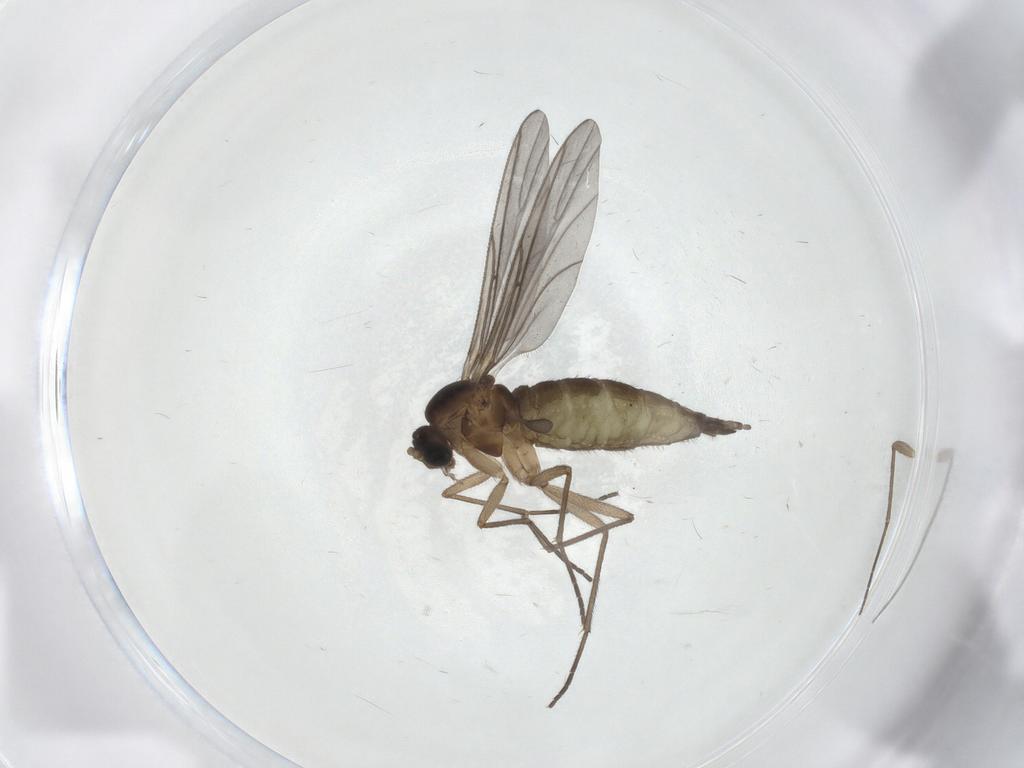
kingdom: Animalia
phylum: Arthropoda
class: Insecta
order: Diptera
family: Chironomidae
